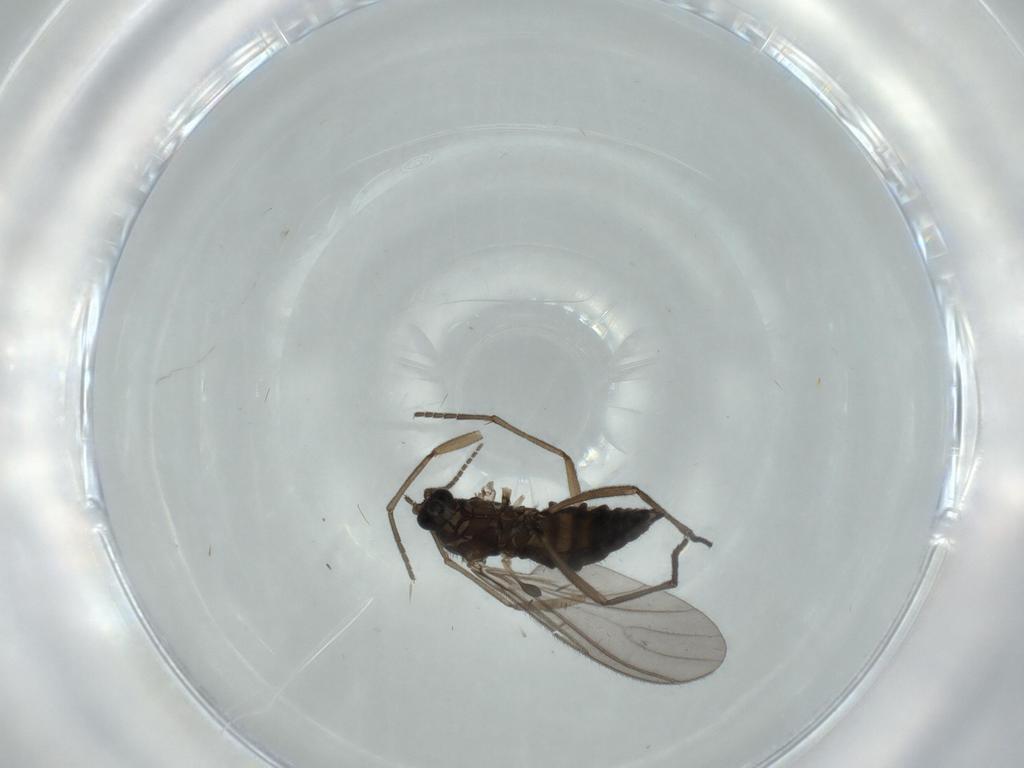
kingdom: Animalia
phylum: Arthropoda
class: Insecta
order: Diptera
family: Sciaridae
